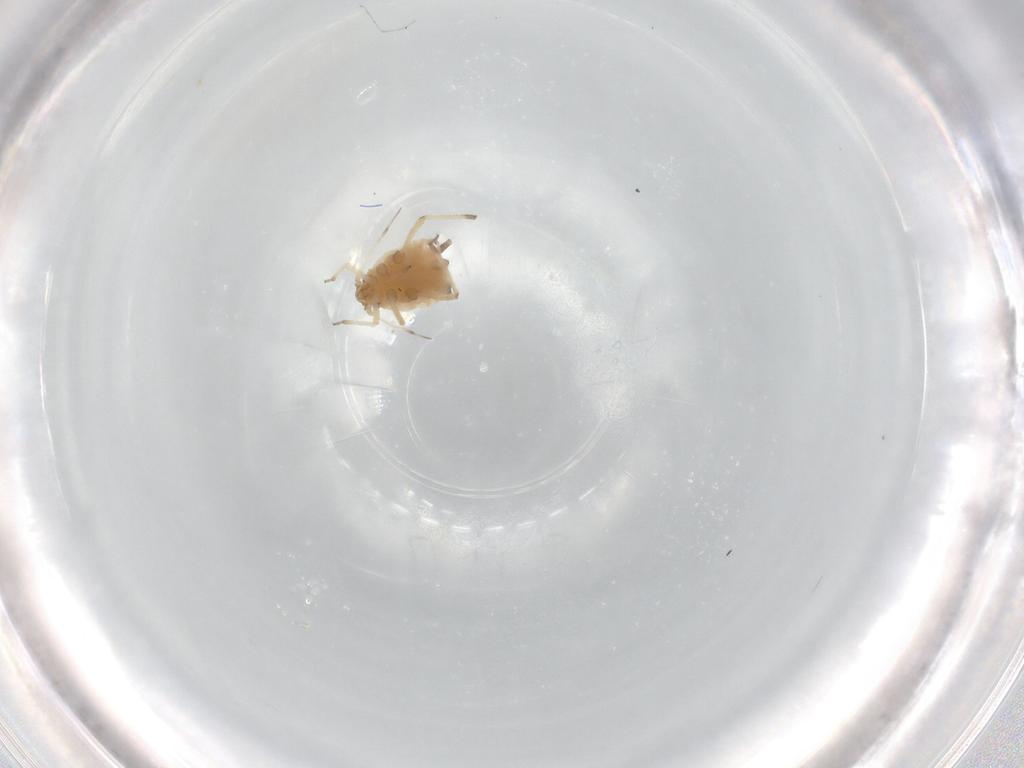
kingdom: Animalia
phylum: Arthropoda
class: Insecta
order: Hemiptera
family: Aphididae
